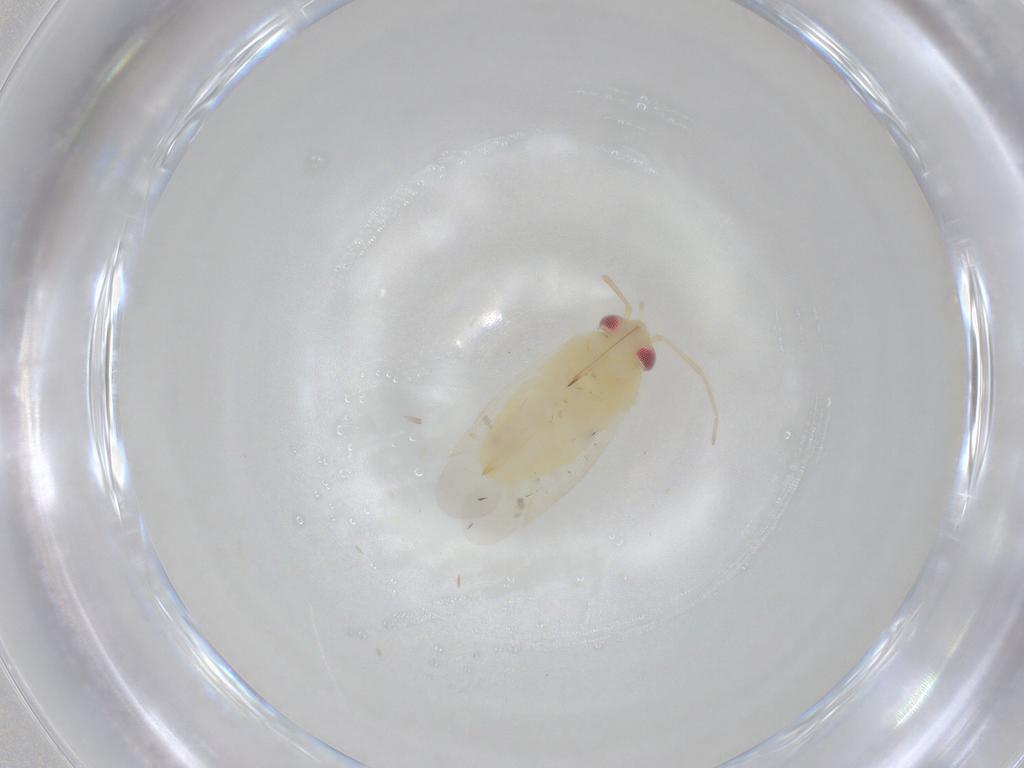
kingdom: Animalia
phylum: Arthropoda
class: Insecta
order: Hemiptera
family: Miridae
